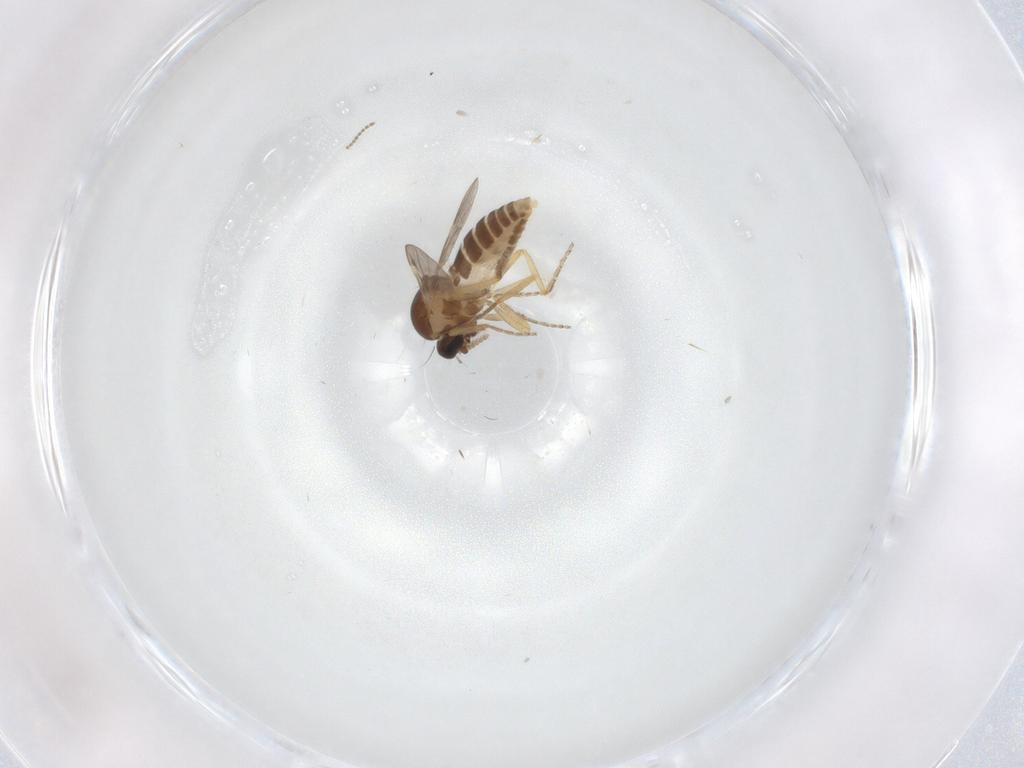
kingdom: Animalia
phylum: Arthropoda
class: Insecta
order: Diptera
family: Ceratopogonidae
